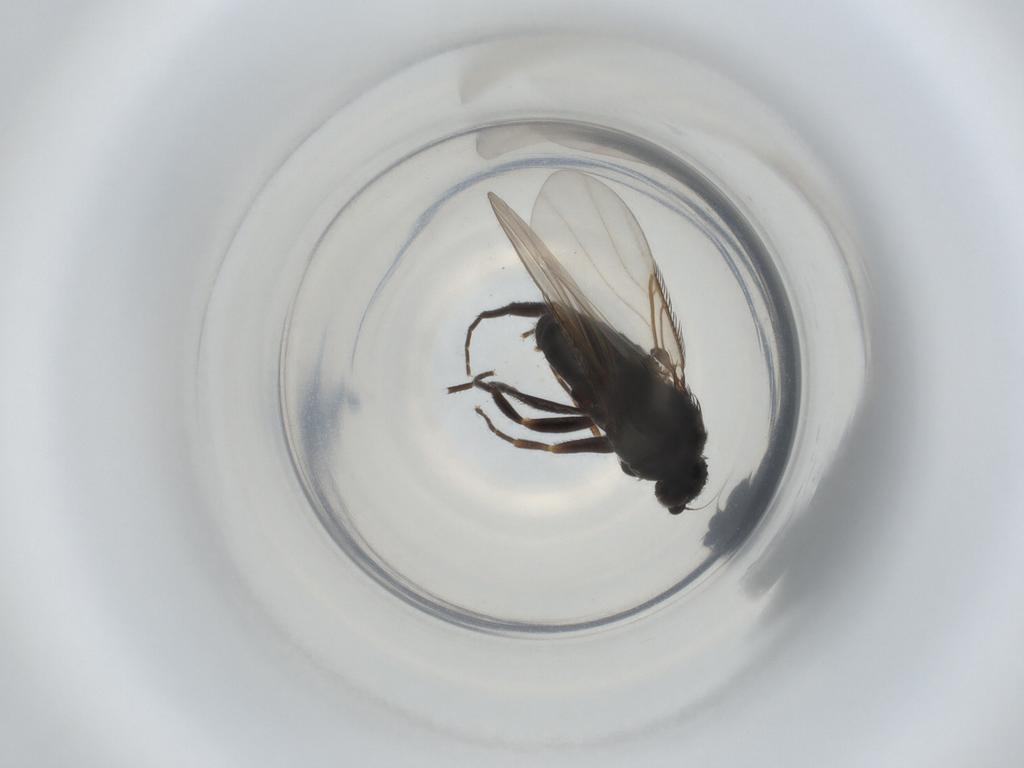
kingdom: Animalia
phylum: Arthropoda
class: Insecta
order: Diptera
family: Phoridae
